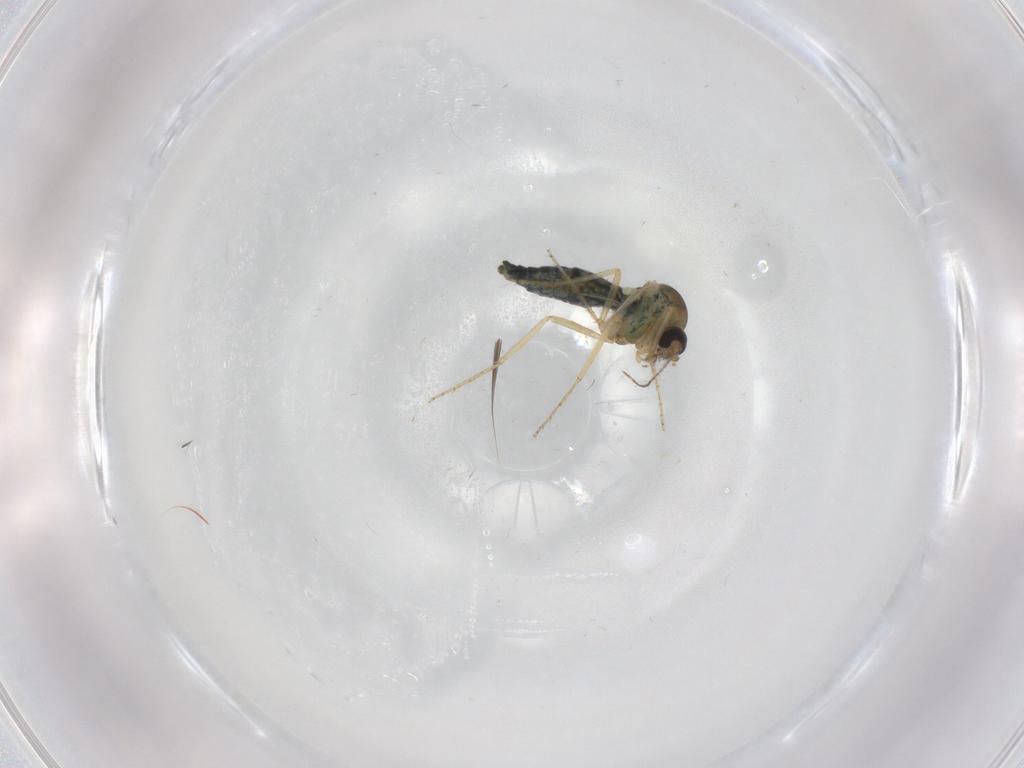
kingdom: Animalia
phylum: Arthropoda
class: Insecta
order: Diptera
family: Ceratopogonidae
